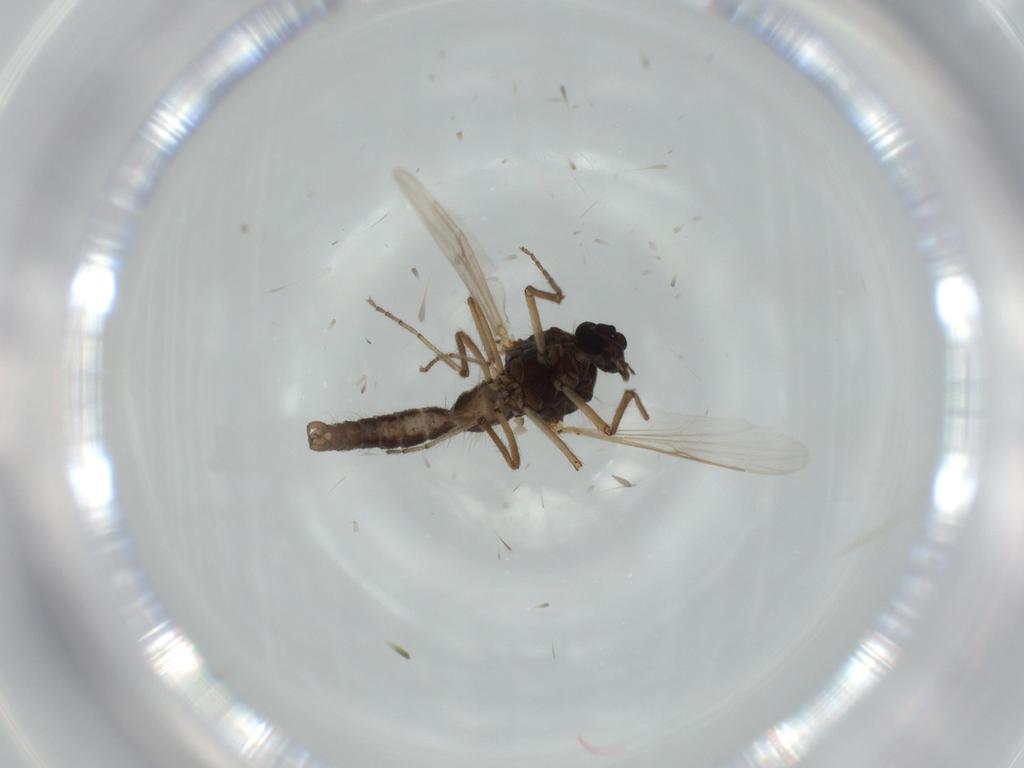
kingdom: Animalia
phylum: Arthropoda
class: Insecta
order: Diptera
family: Ceratopogonidae
